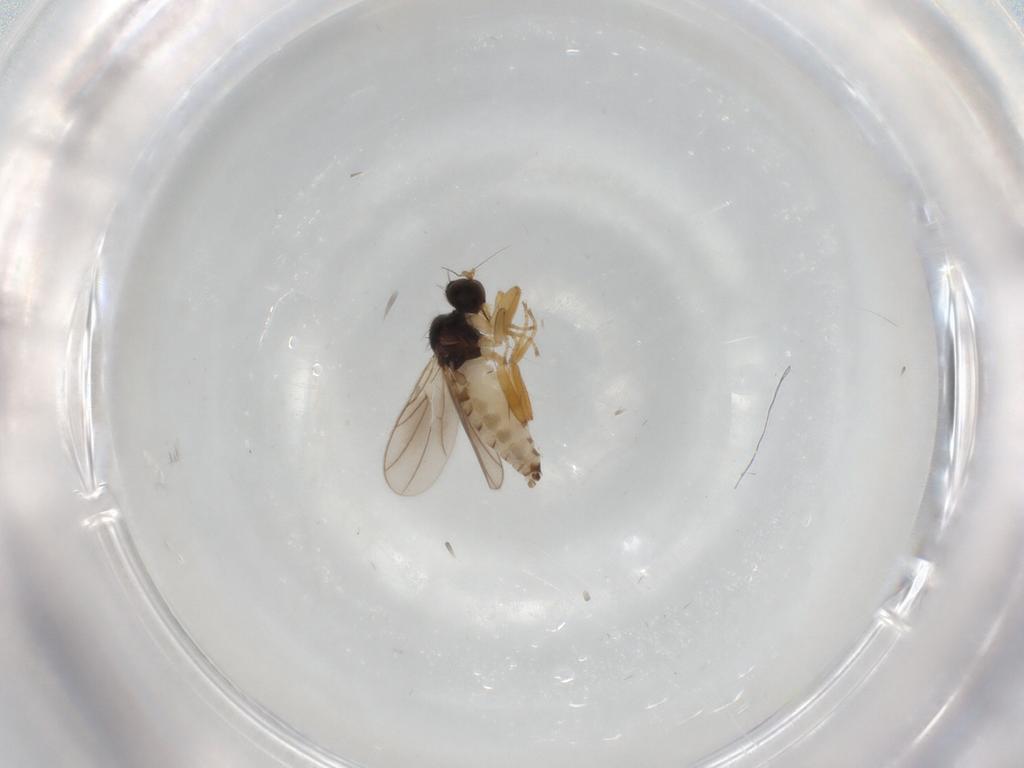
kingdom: Animalia
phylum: Arthropoda
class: Insecta
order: Diptera
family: Hybotidae
